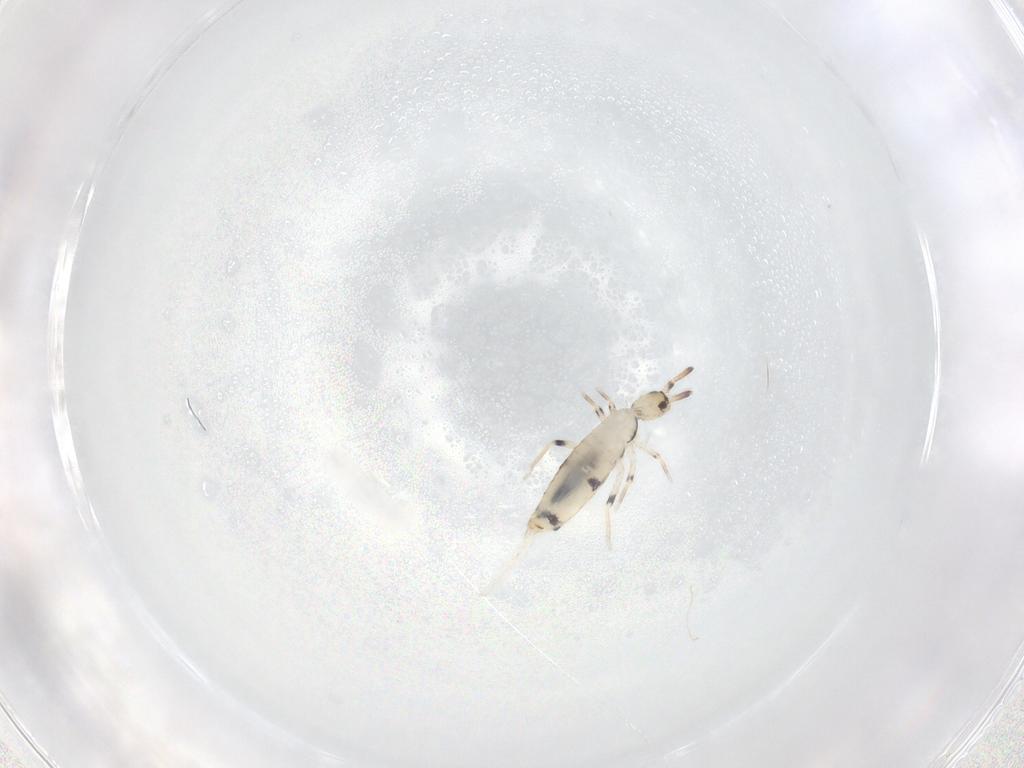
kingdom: Animalia
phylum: Arthropoda
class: Collembola
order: Entomobryomorpha
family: Entomobryidae
